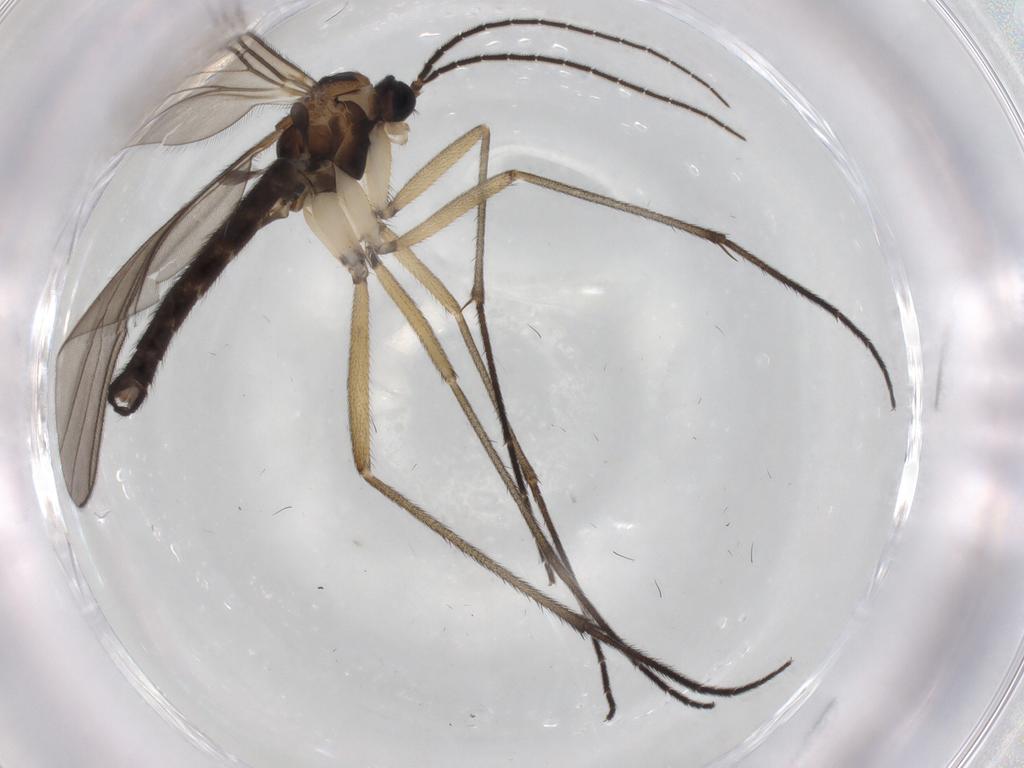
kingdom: Animalia
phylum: Arthropoda
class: Insecta
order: Diptera
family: Sciaridae
